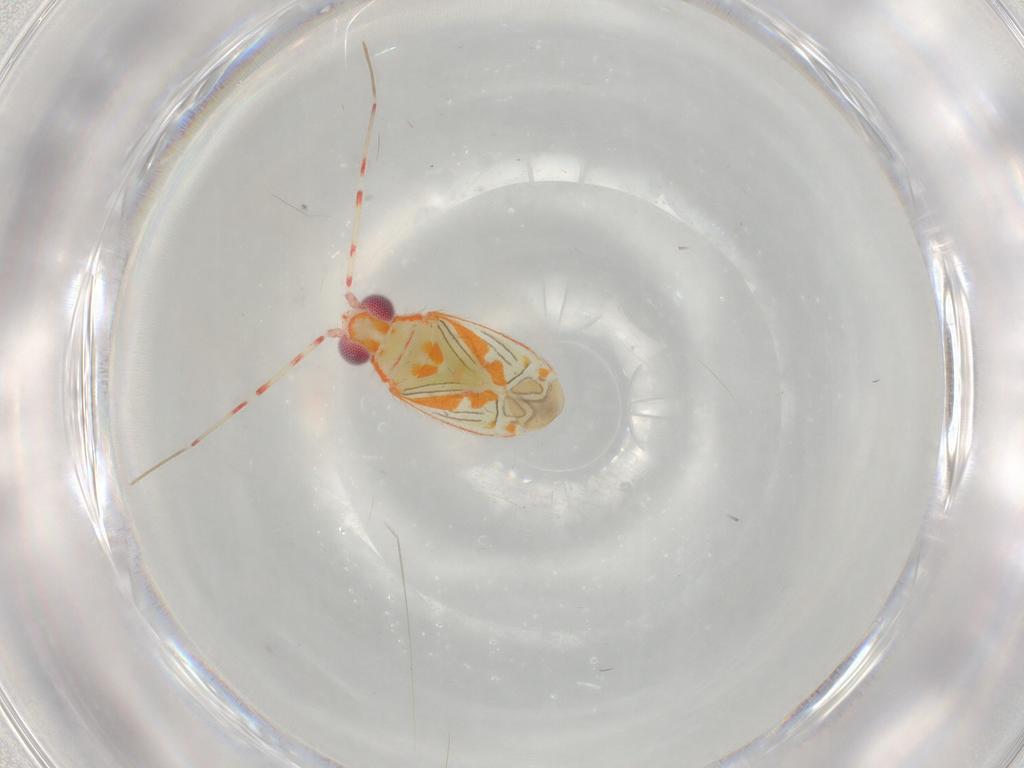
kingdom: Animalia
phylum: Arthropoda
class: Insecta
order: Hemiptera
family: Miridae
